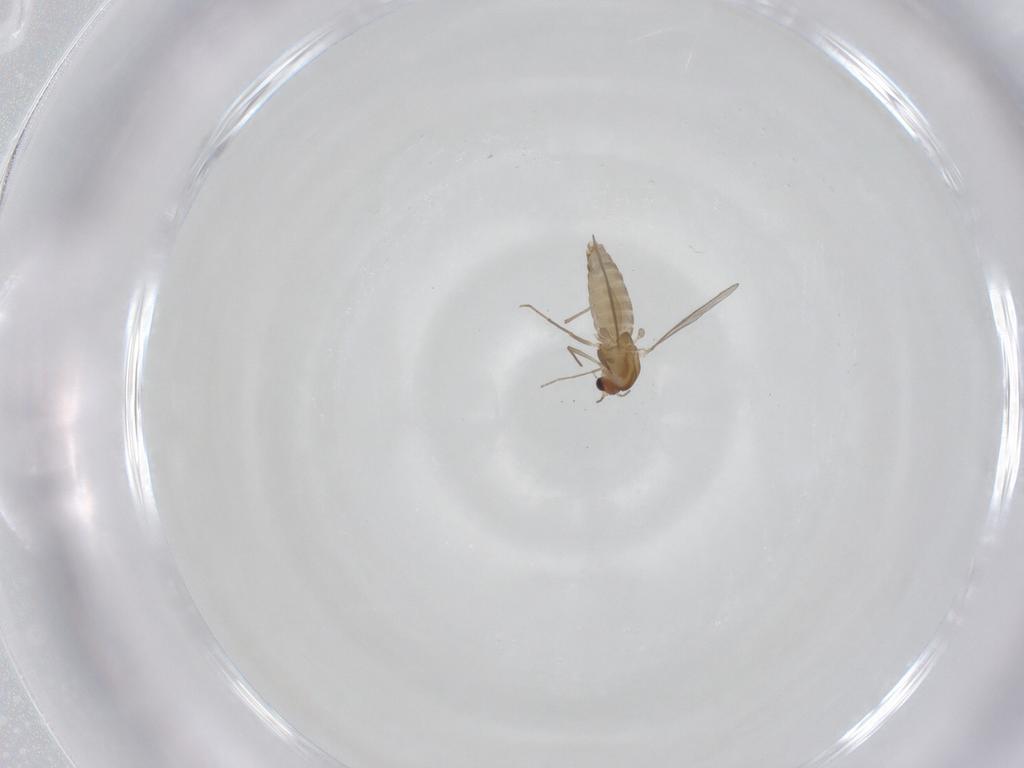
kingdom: Animalia
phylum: Arthropoda
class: Insecta
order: Diptera
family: Chironomidae
